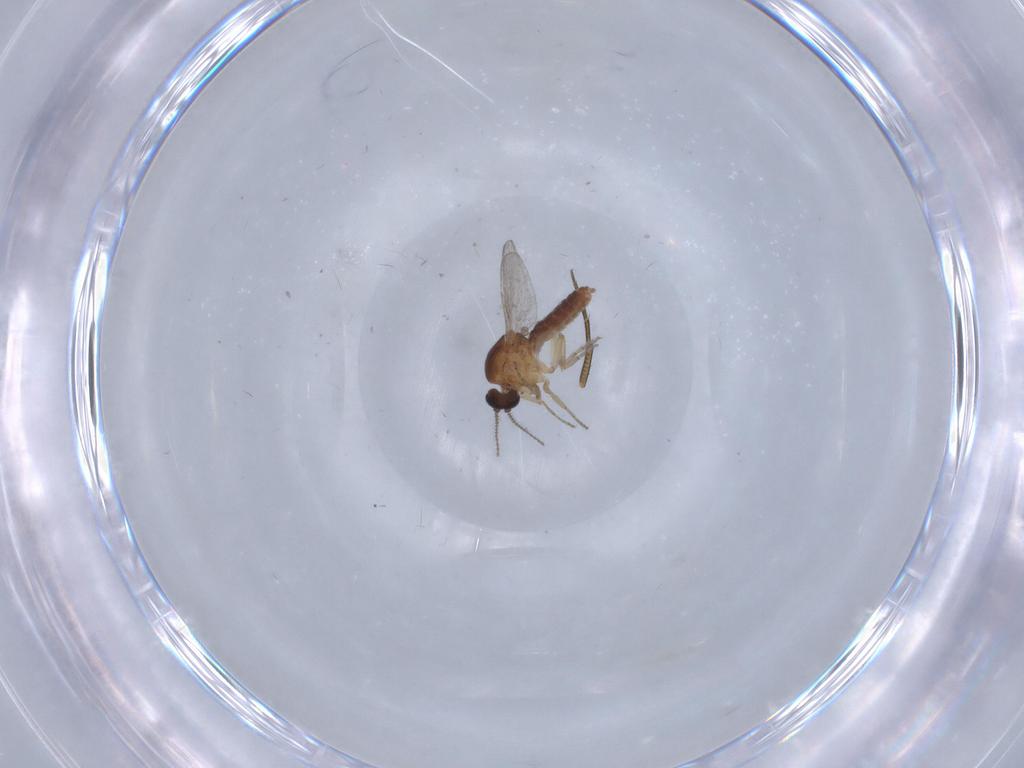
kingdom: Animalia
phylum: Arthropoda
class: Insecta
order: Diptera
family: Ceratopogonidae
